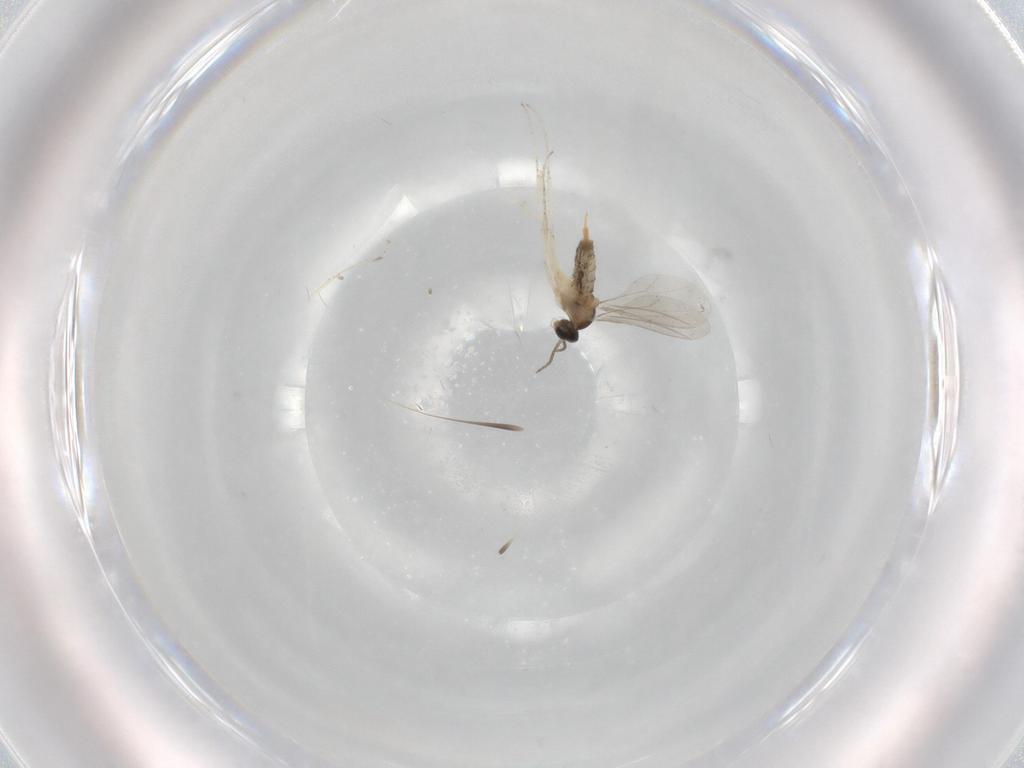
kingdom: Animalia
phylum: Arthropoda
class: Insecta
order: Diptera
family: Cecidomyiidae
